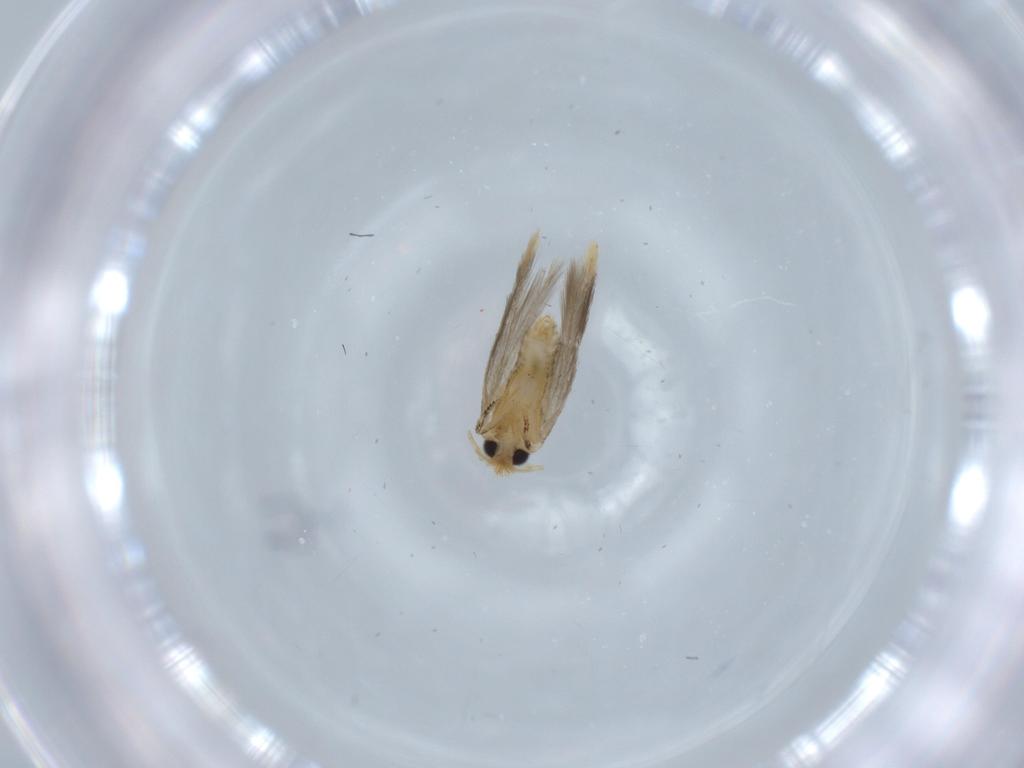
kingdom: Animalia
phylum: Arthropoda
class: Insecta
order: Lepidoptera
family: Nepticulidae
